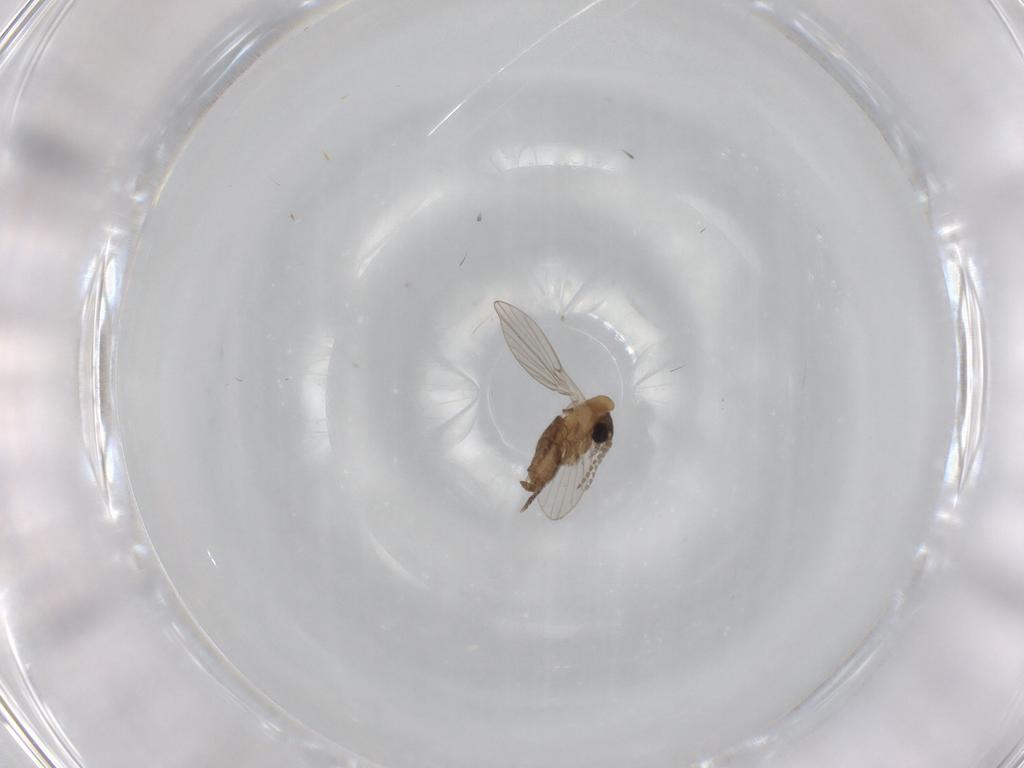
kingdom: Animalia
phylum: Arthropoda
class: Insecta
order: Diptera
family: Psychodidae
